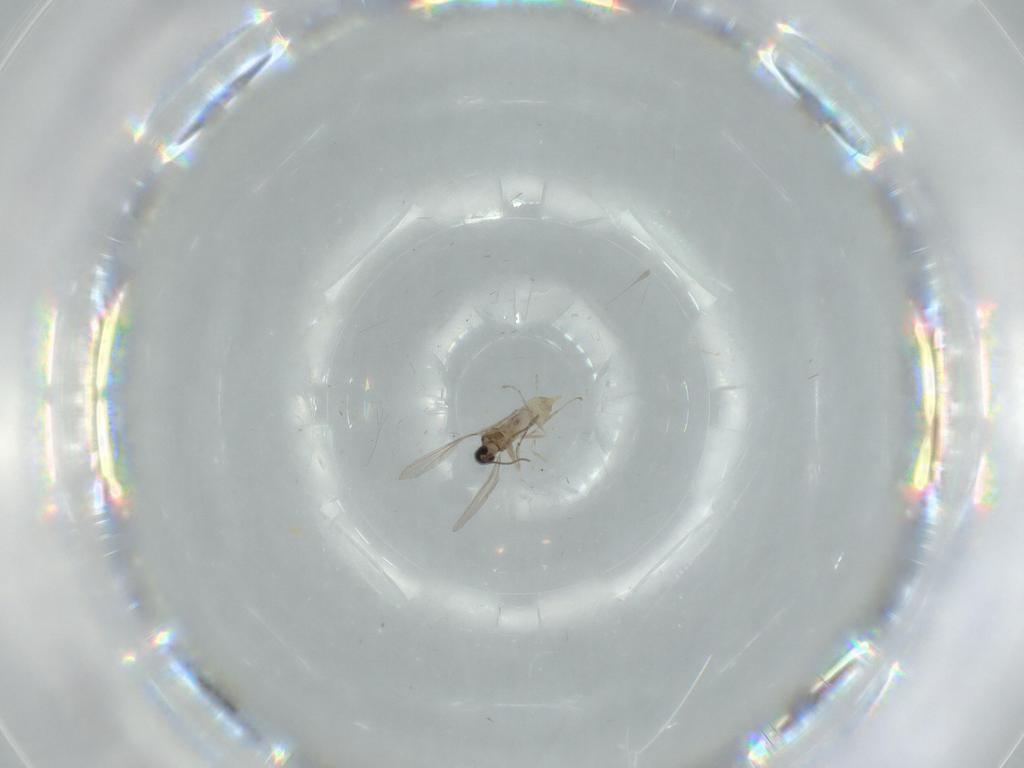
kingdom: Animalia
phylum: Arthropoda
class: Insecta
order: Diptera
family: Cecidomyiidae
